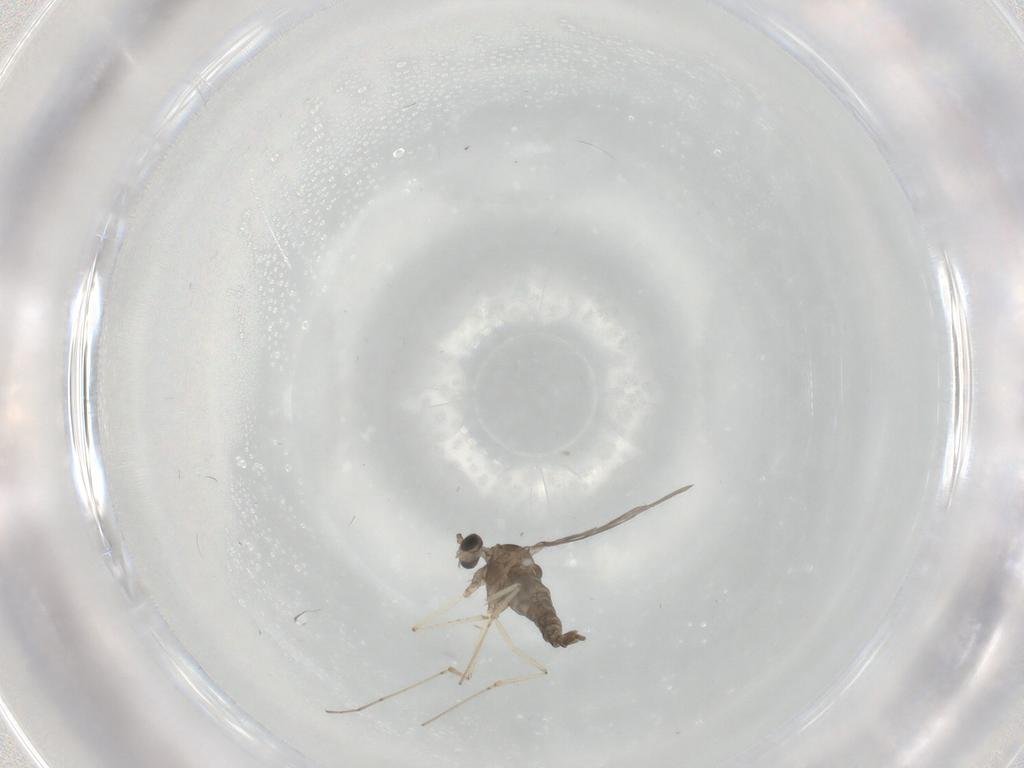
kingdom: Animalia
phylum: Arthropoda
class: Insecta
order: Diptera
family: Cecidomyiidae
